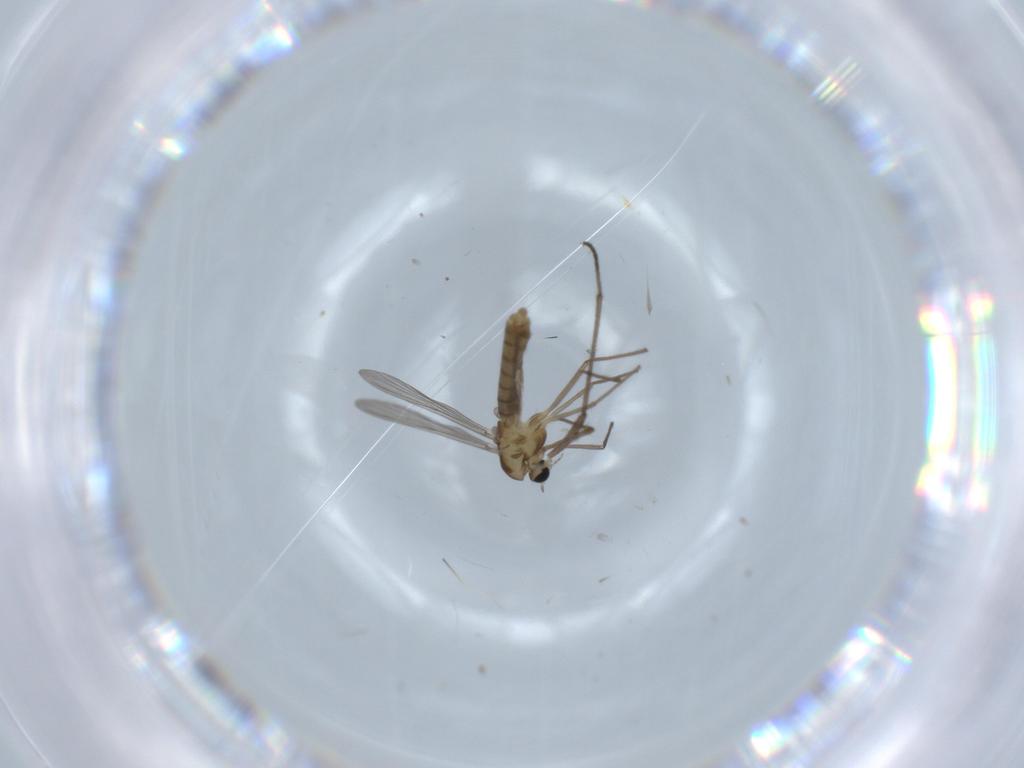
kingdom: Animalia
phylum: Arthropoda
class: Insecta
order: Diptera
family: Chironomidae
